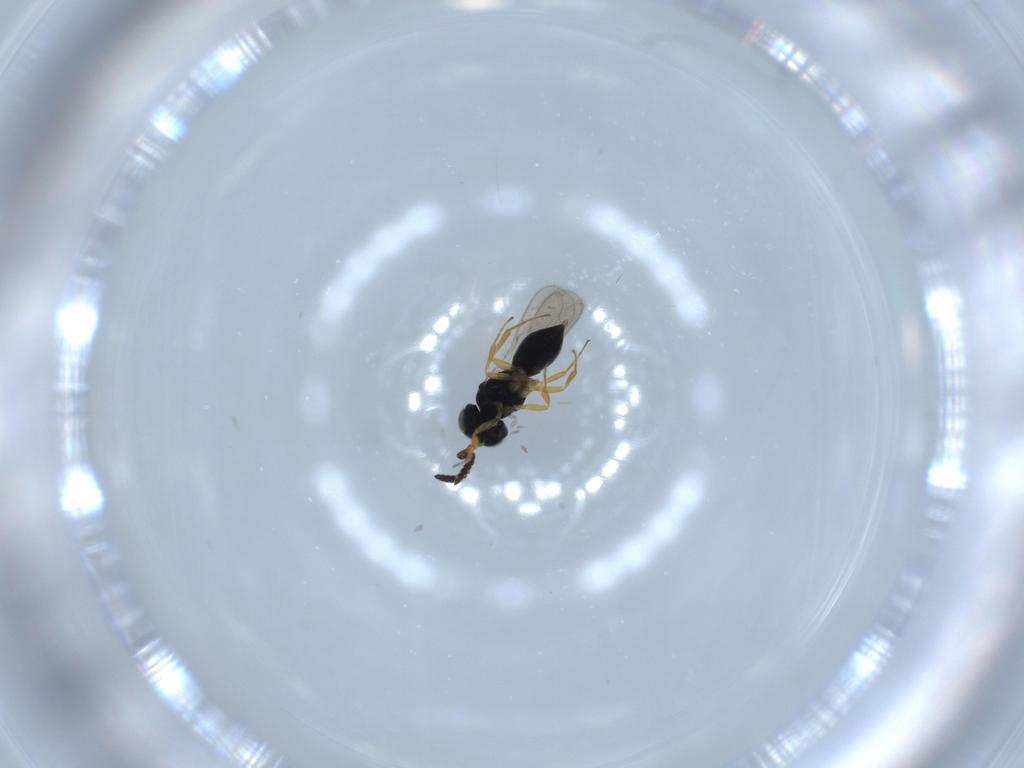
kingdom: Animalia
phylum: Arthropoda
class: Insecta
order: Hymenoptera
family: Scelionidae
